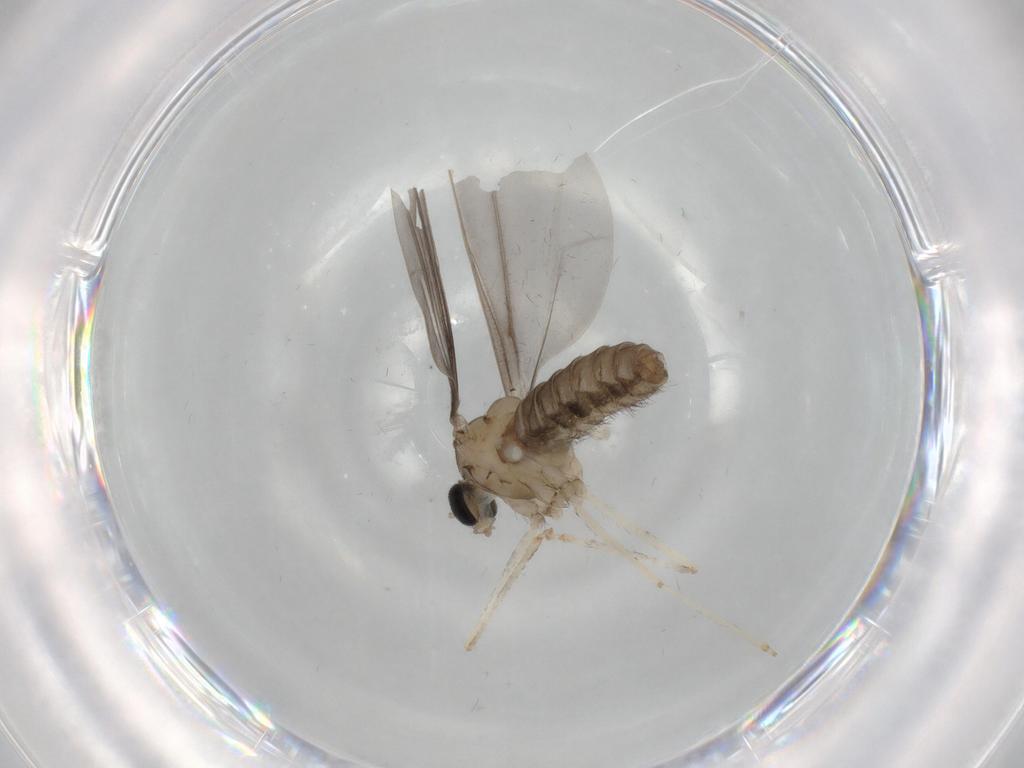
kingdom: Animalia
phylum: Arthropoda
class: Insecta
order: Diptera
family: Cecidomyiidae
